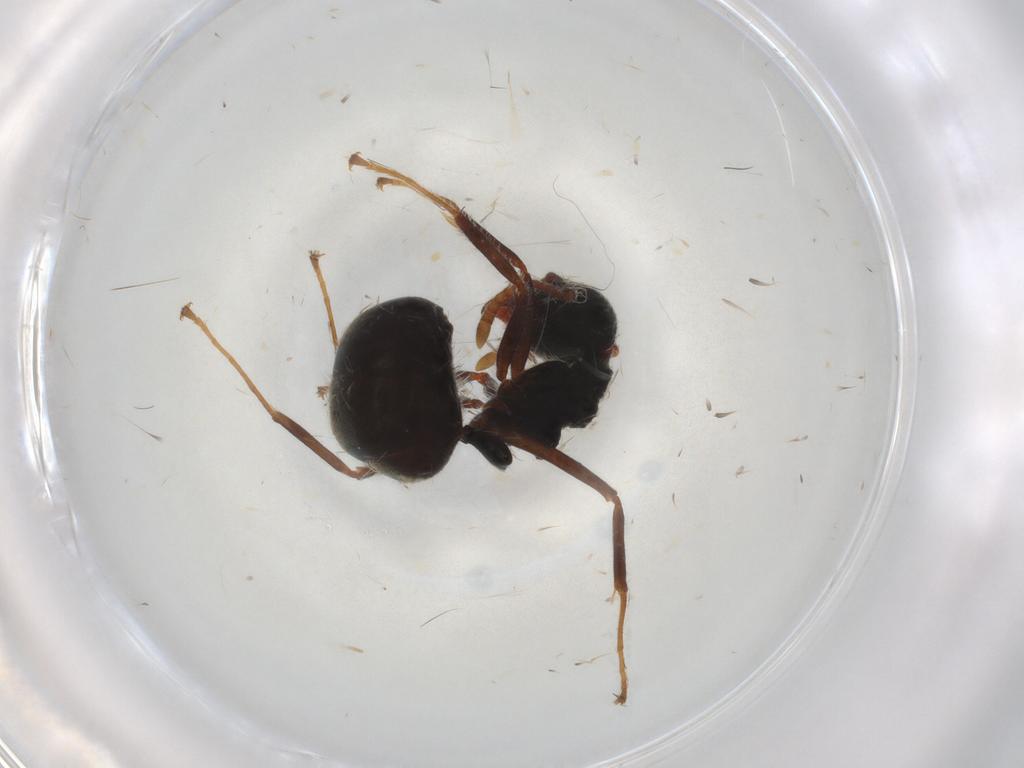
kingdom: Animalia
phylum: Arthropoda
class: Insecta
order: Hymenoptera
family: Formicidae
